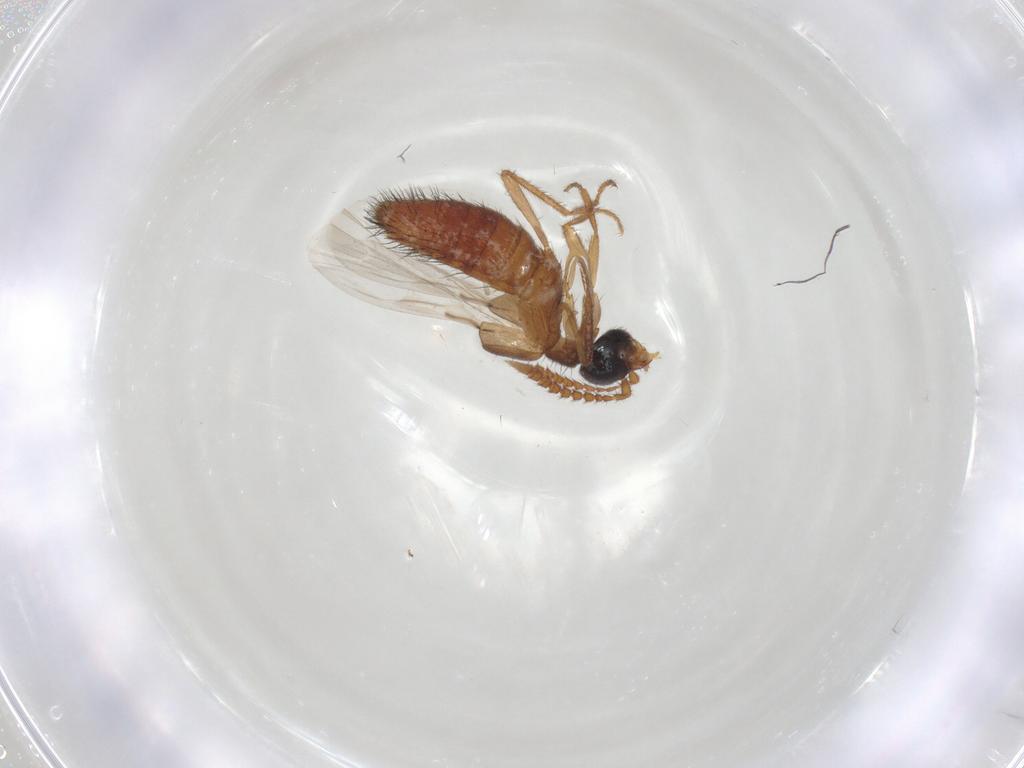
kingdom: Animalia
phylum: Arthropoda
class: Insecta
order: Coleoptera
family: Staphylinidae
